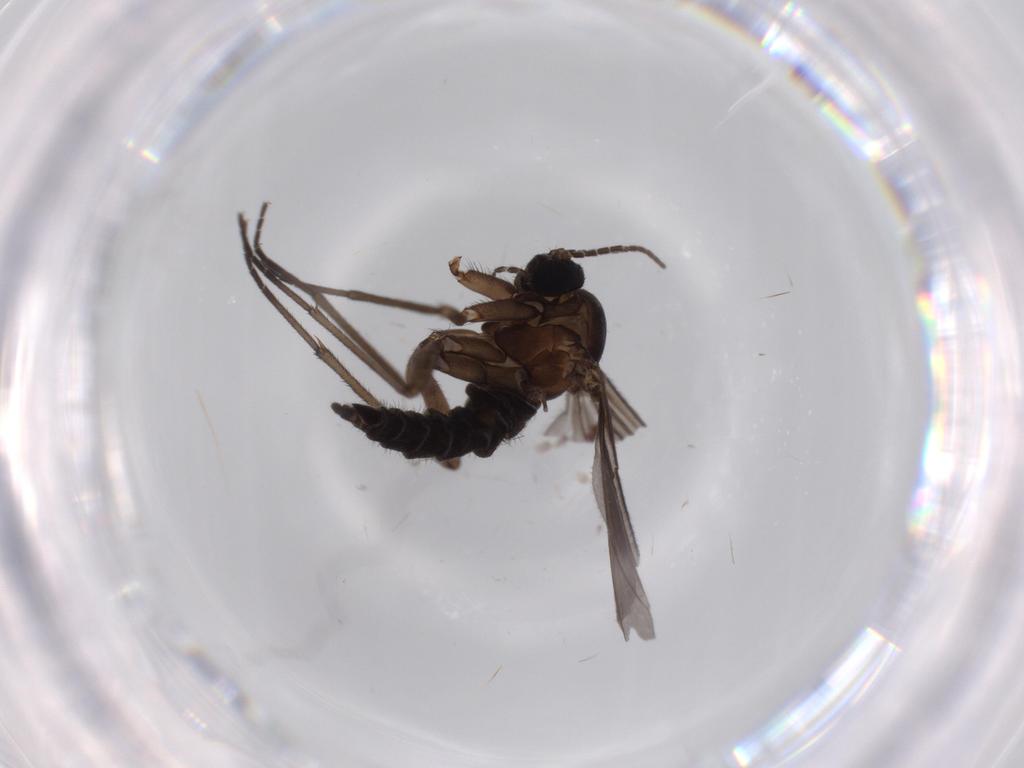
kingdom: Animalia
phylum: Arthropoda
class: Insecta
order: Diptera
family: Sciaridae
